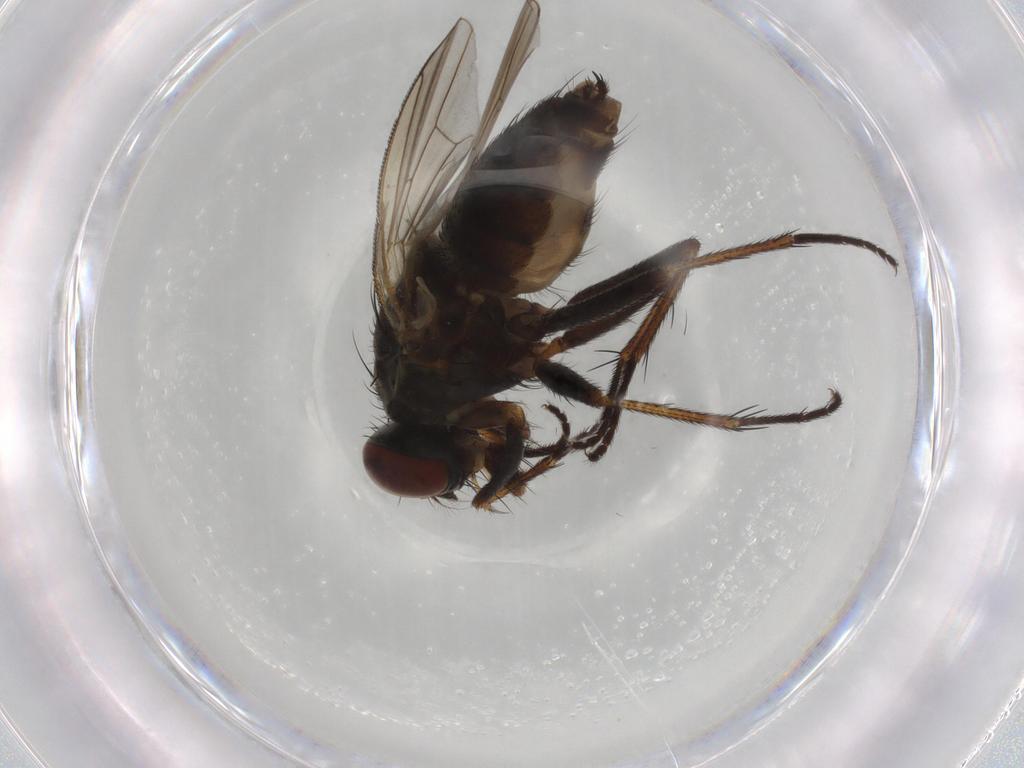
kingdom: Animalia
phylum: Arthropoda
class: Insecta
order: Diptera
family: Muscidae
